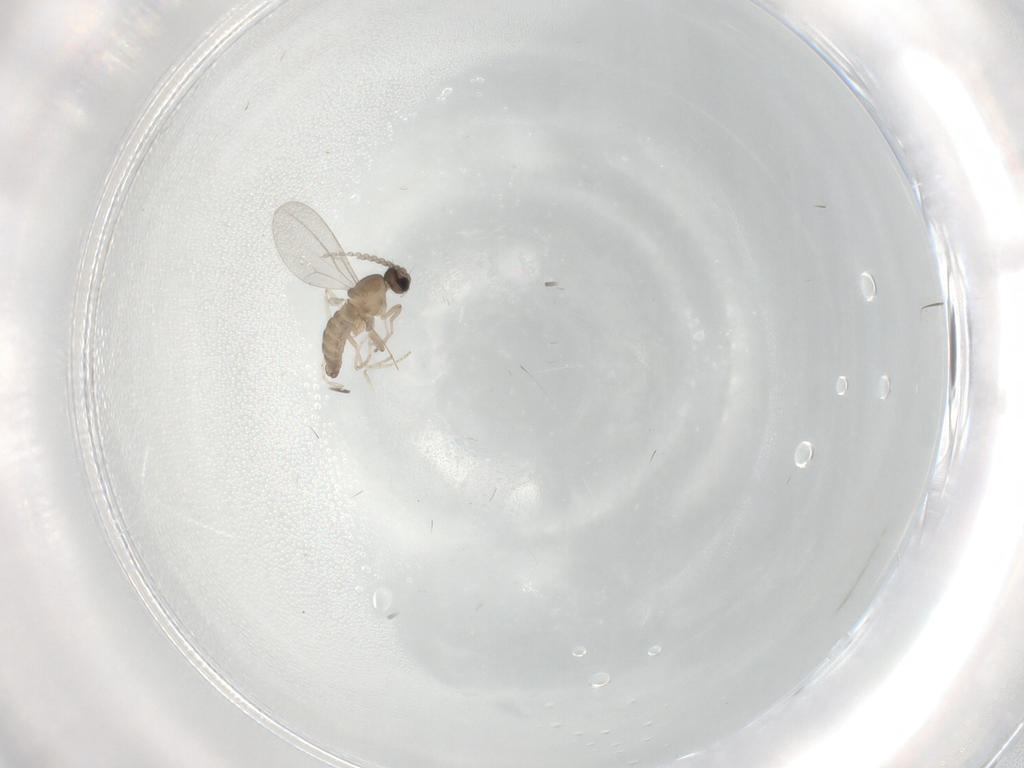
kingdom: Animalia
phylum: Arthropoda
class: Insecta
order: Diptera
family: Cecidomyiidae
